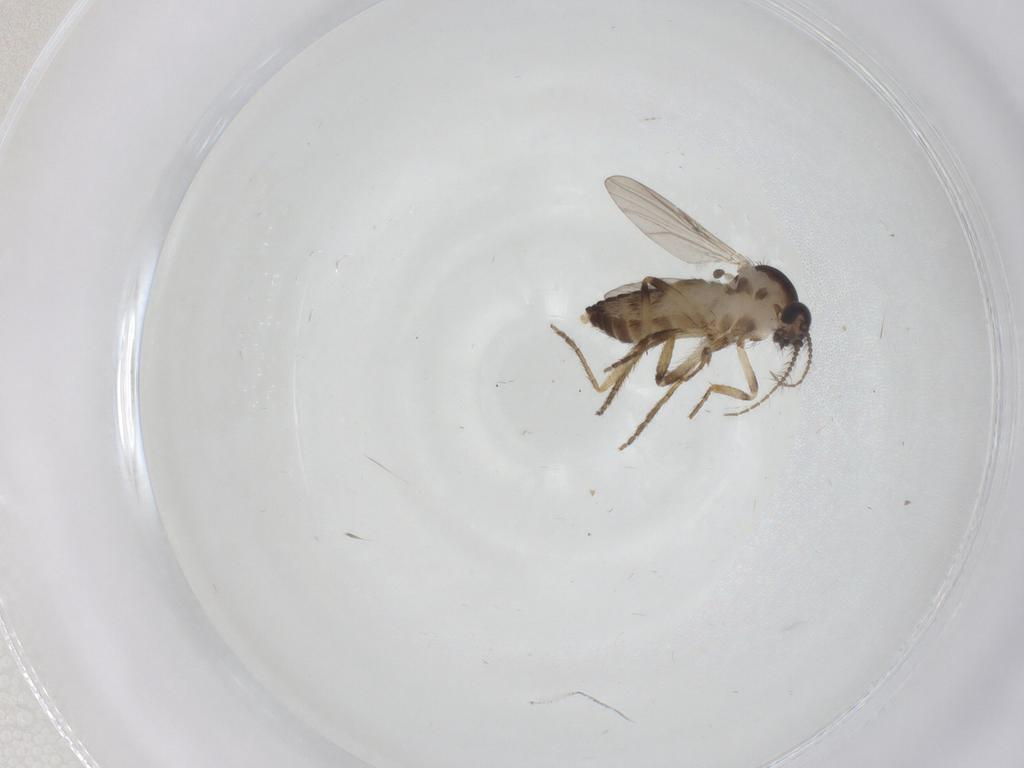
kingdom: Animalia
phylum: Arthropoda
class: Insecta
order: Diptera
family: Ceratopogonidae
